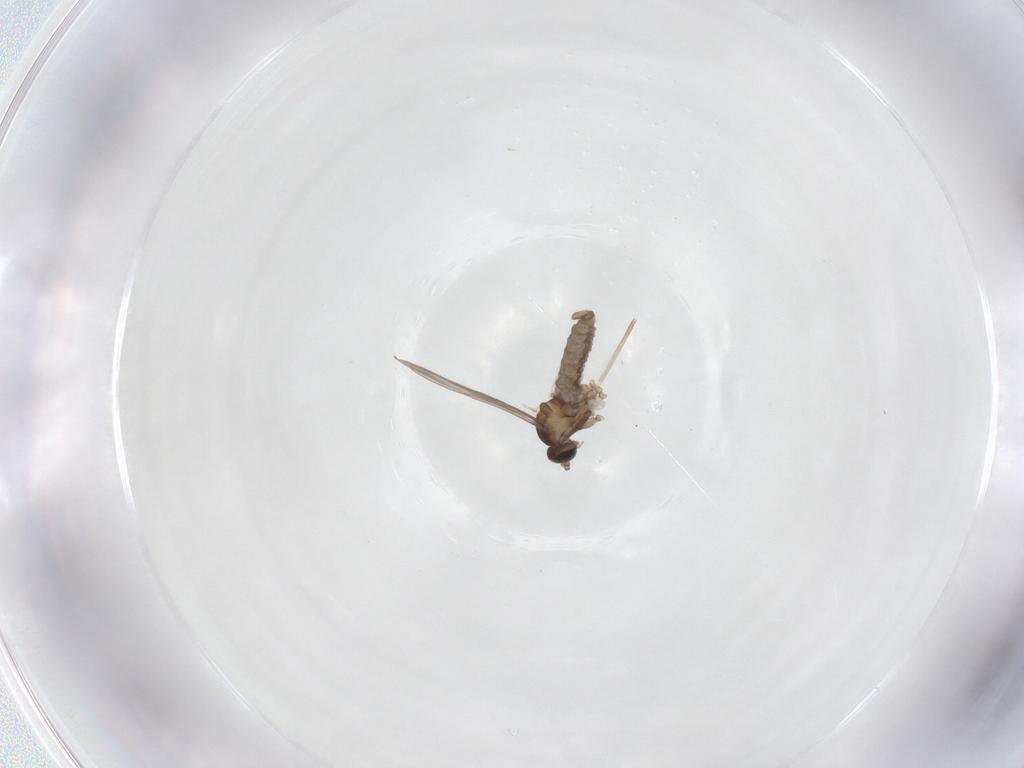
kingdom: Animalia
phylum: Arthropoda
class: Insecta
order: Diptera
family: Cecidomyiidae
